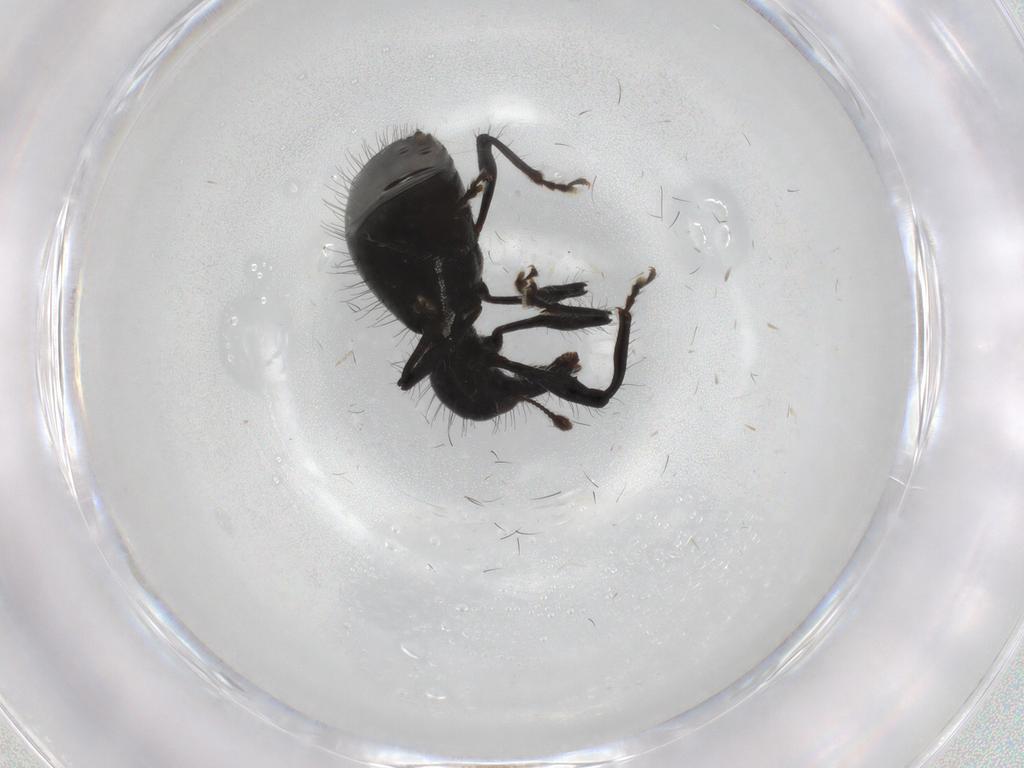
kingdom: Animalia
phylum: Arthropoda
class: Insecta
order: Coleoptera
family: Curculionidae
